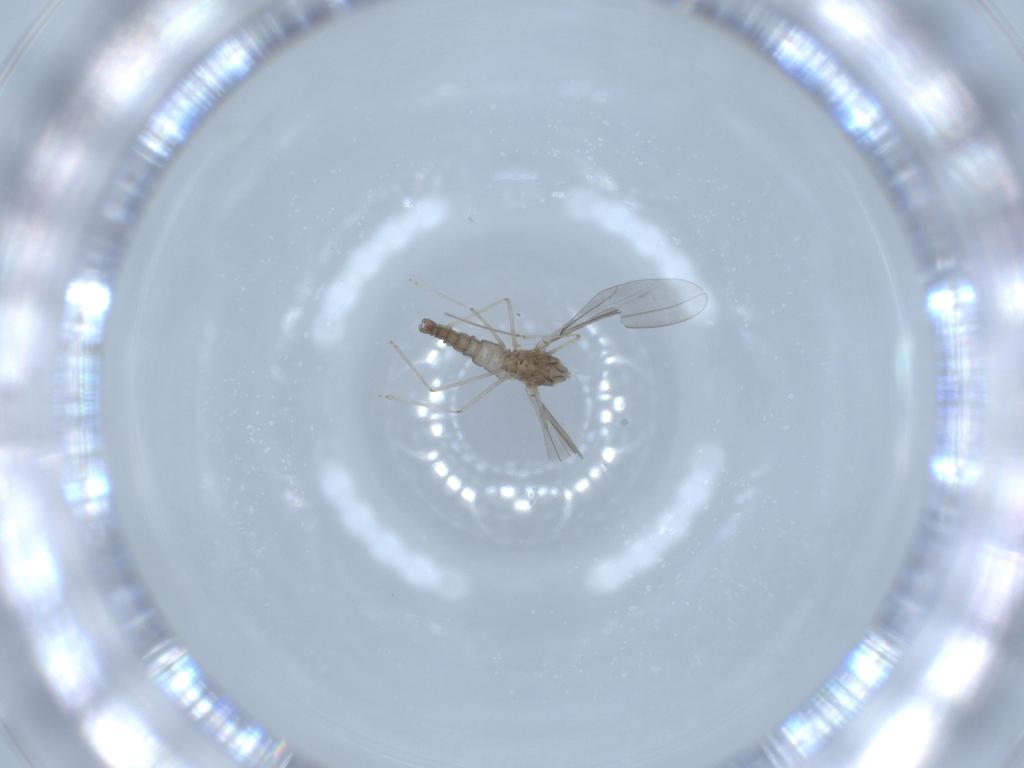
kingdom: Animalia
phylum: Arthropoda
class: Insecta
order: Diptera
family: Cecidomyiidae
